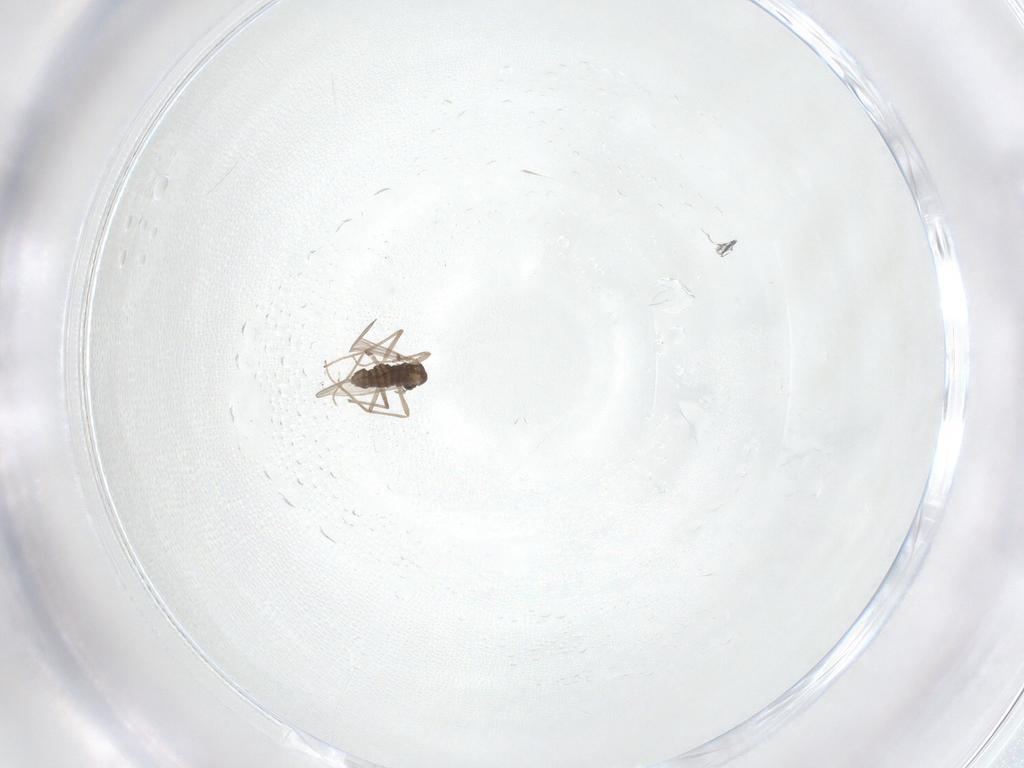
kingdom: Animalia
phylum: Arthropoda
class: Insecta
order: Diptera
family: Chironomidae
